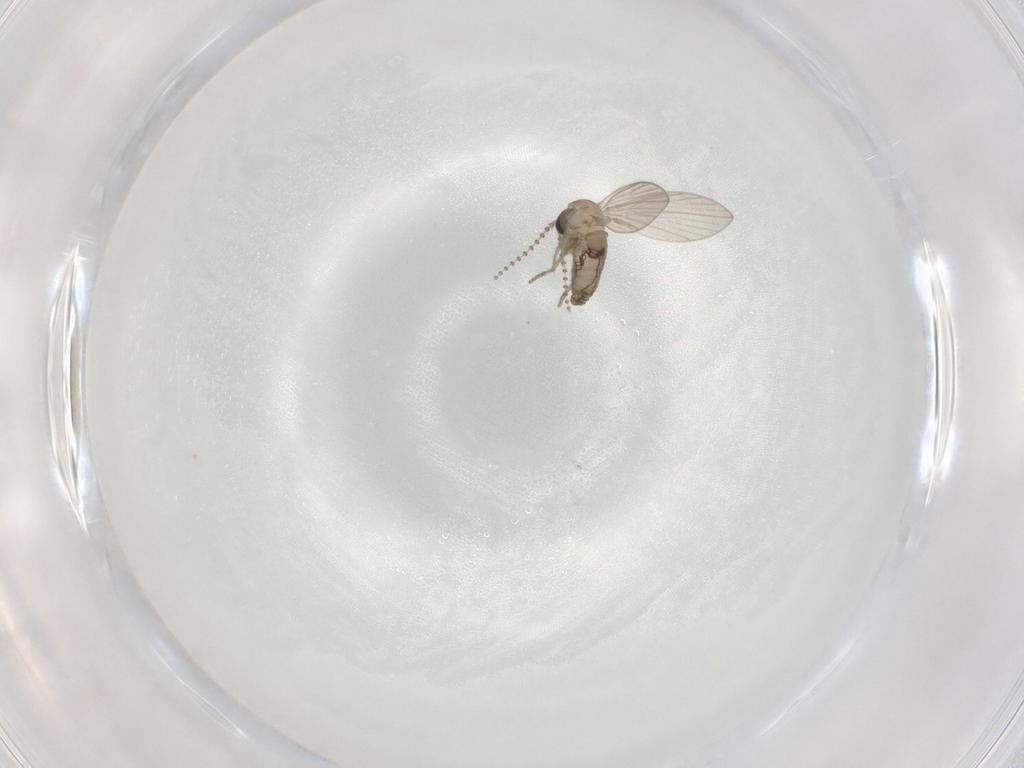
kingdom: Animalia
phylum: Arthropoda
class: Insecta
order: Diptera
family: Psychodidae
